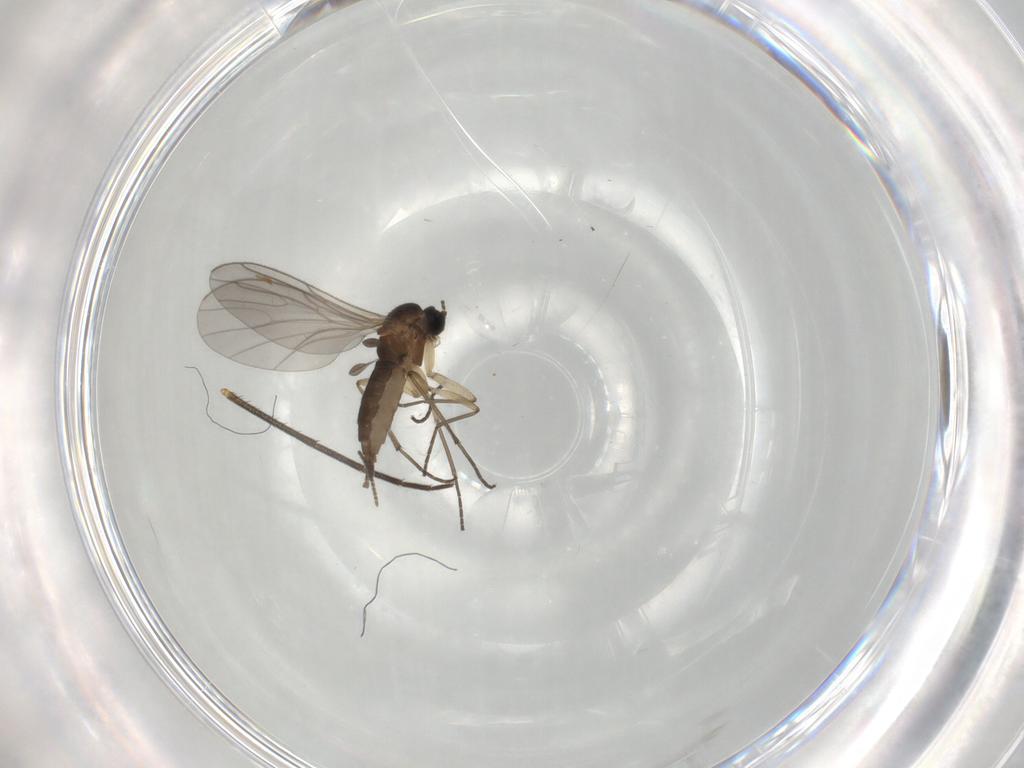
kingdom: Animalia
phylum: Arthropoda
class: Insecta
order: Diptera
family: Sciaridae
